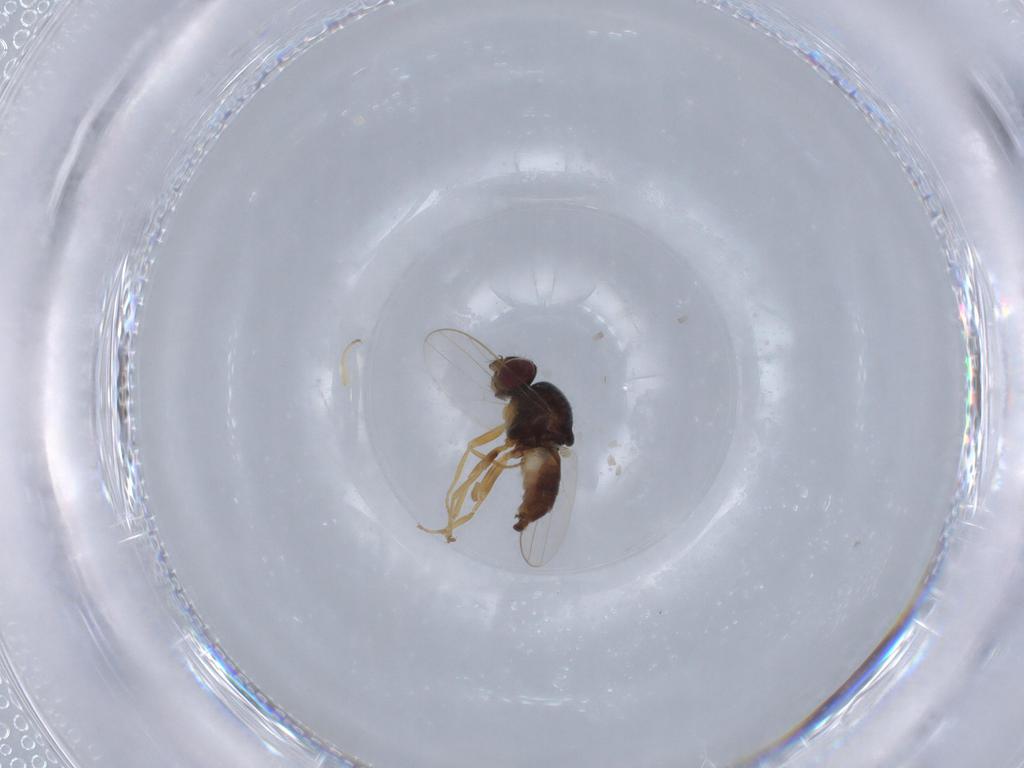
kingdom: Animalia
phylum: Arthropoda
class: Insecta
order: Diptera
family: Chloropidae
